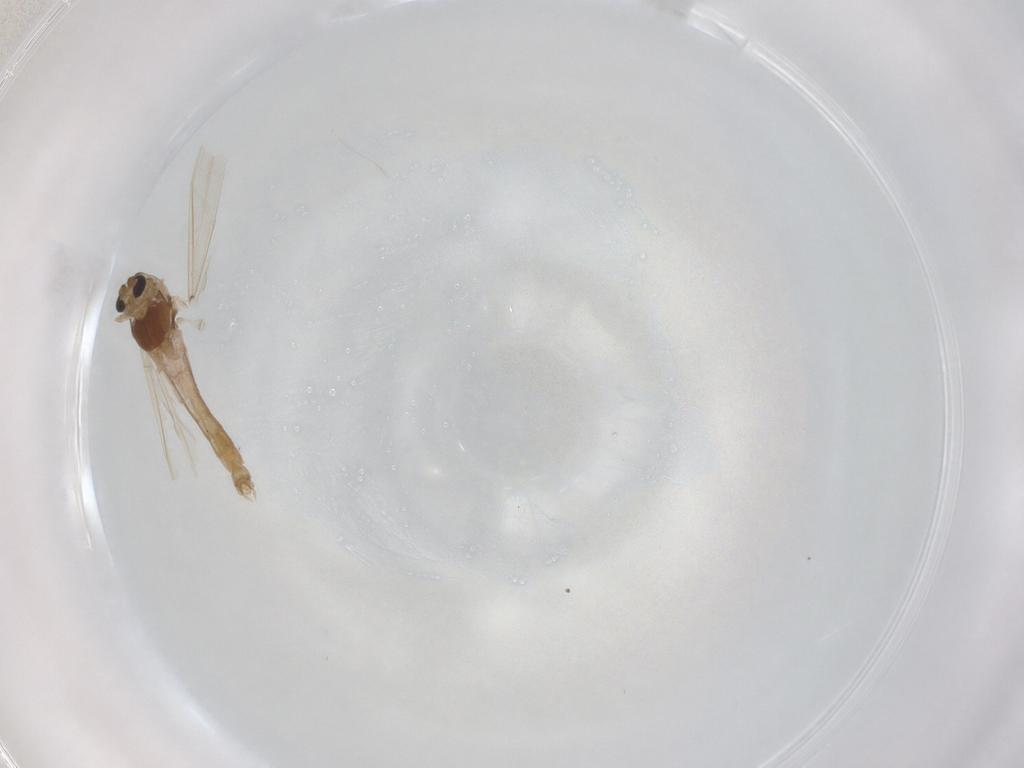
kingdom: Animalia
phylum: Arthropoda
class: Insecta
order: Diptera
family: Chironomidae
